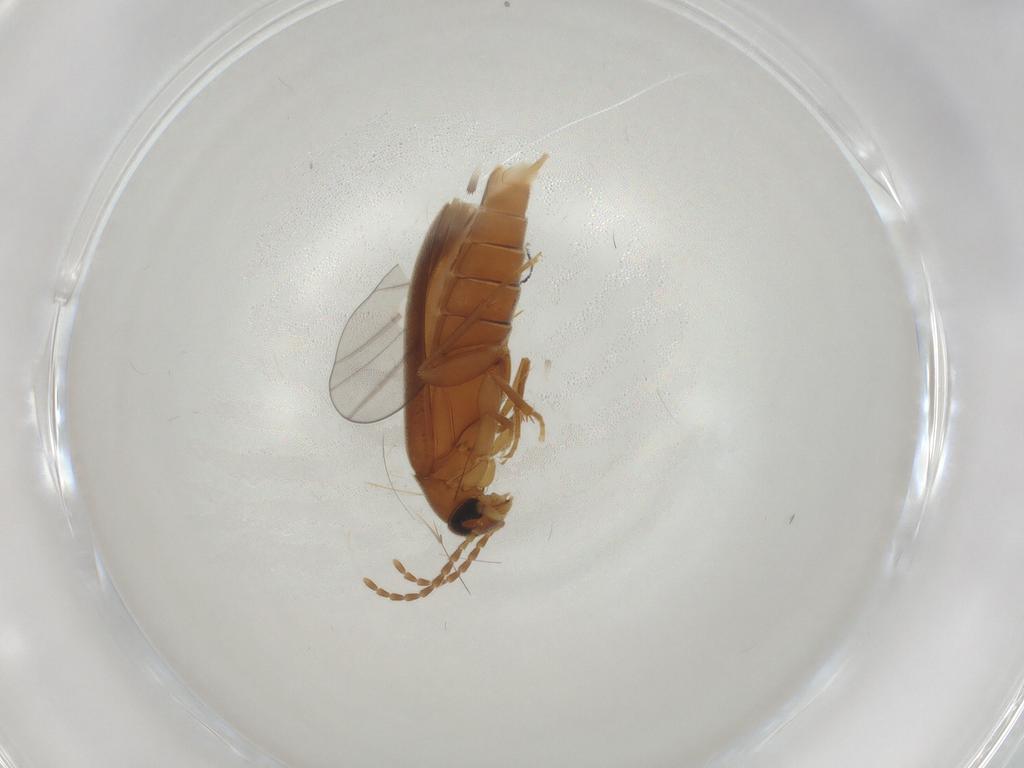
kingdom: Animalia
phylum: Arthropoda
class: Insecta
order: Coleoptera
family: Scraptiidae
